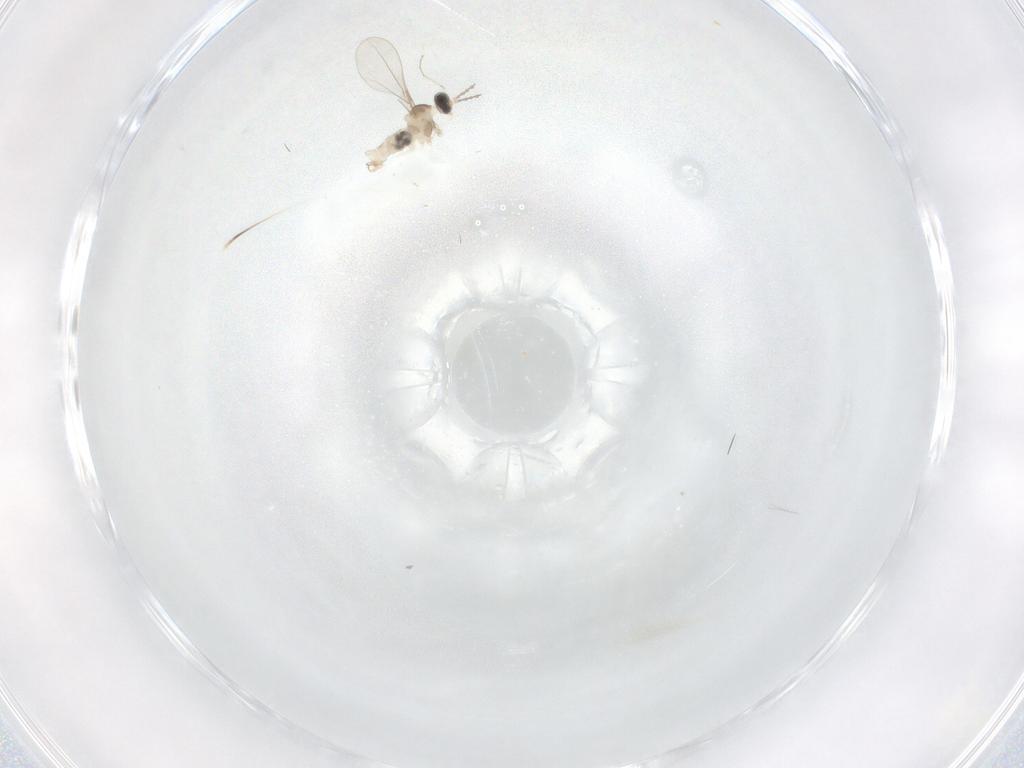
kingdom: Animalia
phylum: Arthropoda
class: Insecta
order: Diptera
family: Cecidomyiidae
